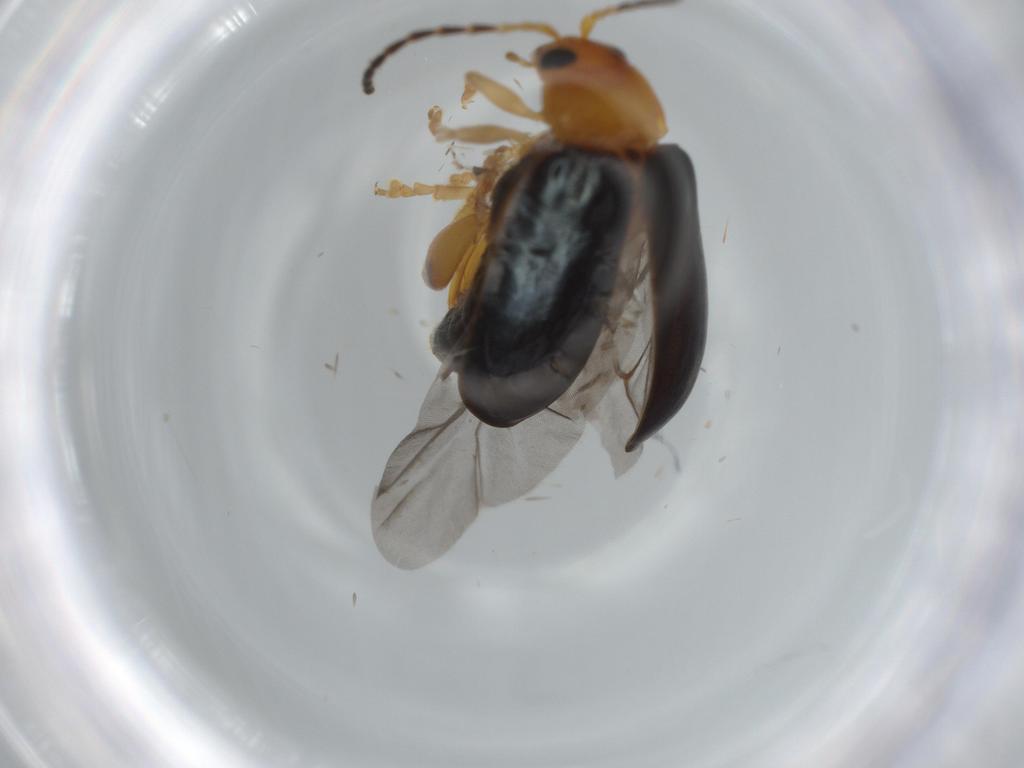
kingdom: Animalia
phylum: Arthropoda
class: Insecta
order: Coleoptera
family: Chrysomelidae
